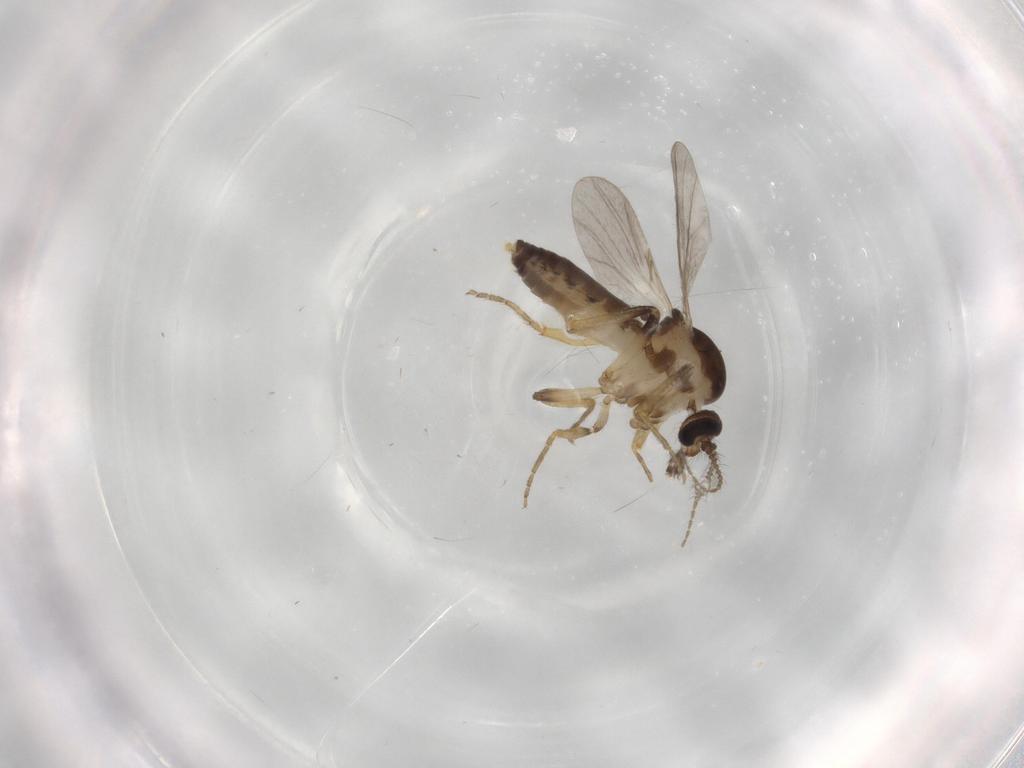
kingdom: Animalia
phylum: Arthropoda
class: Insecta
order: Diptera
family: Ceratopogonidae
